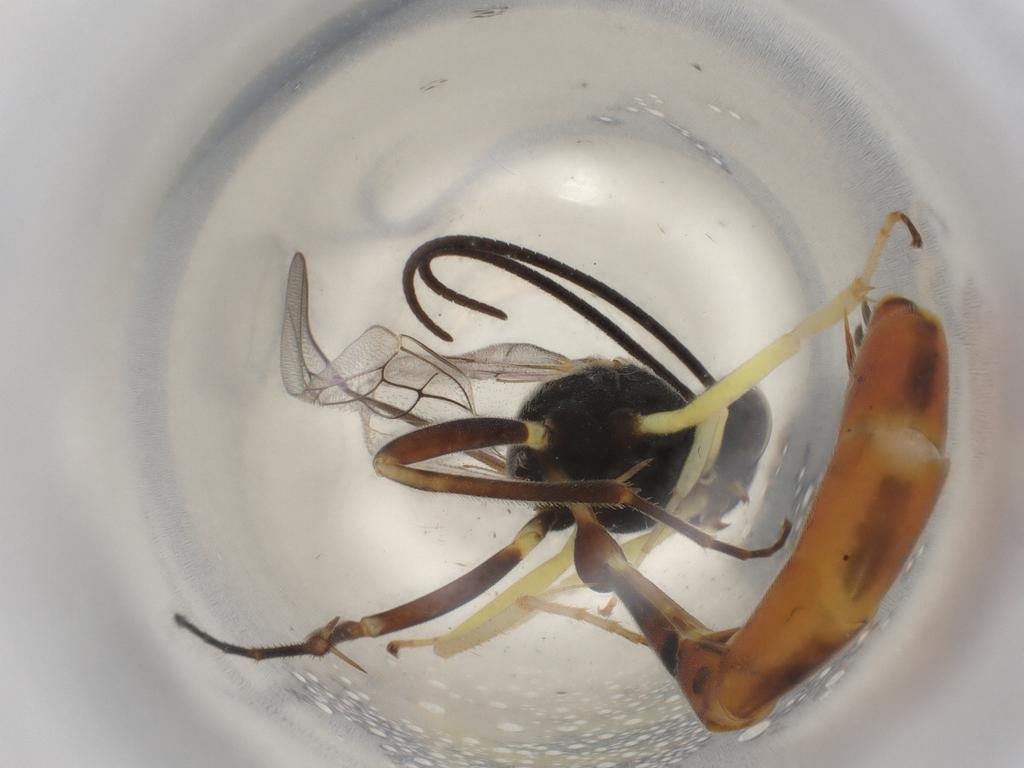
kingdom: Animalia
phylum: Arthropoda
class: Insecta
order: Hymenoptera
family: Ichneumonidae
